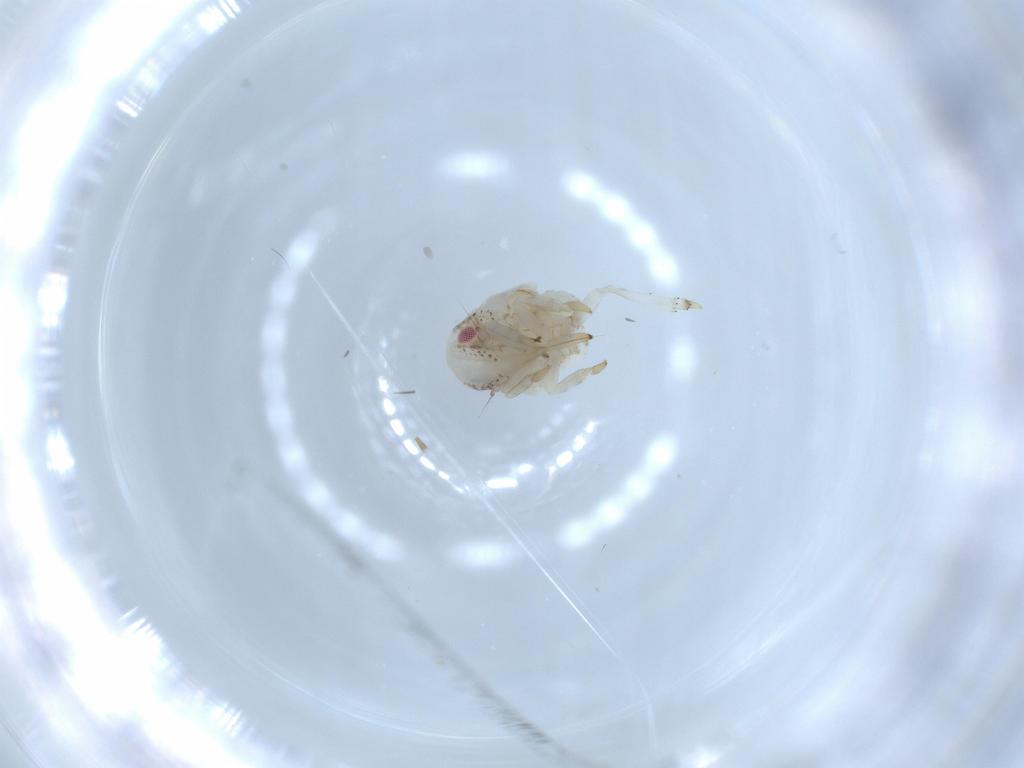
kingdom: Animalia
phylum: Arthropoda
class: Insecta
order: Hemiptera
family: Acanaloniidae
